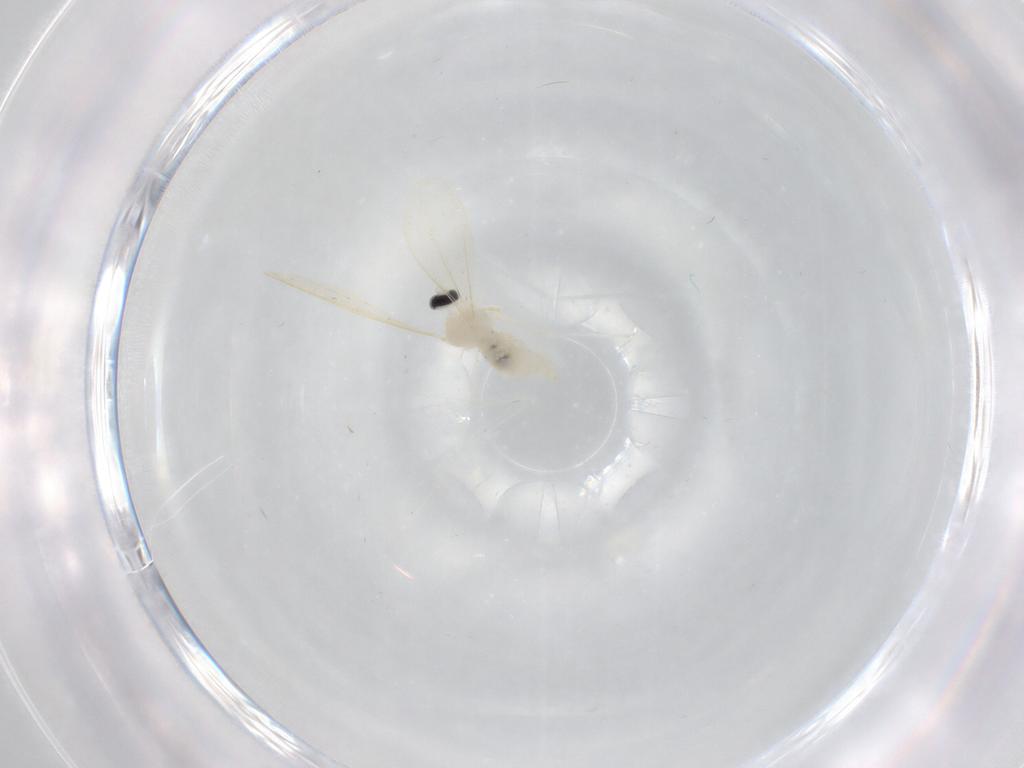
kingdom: Animalia
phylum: Arthropoda
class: Insecta
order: Diptera
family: Cecidomyiidae
